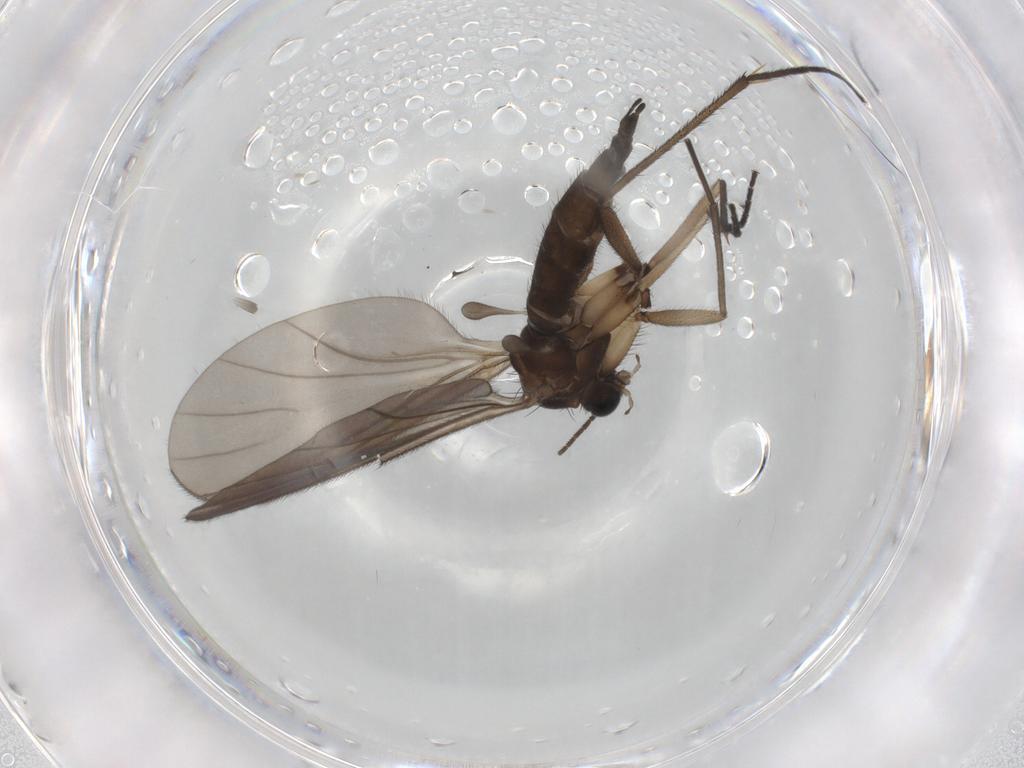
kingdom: Animalia
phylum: Arthropoda
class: Insecta
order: Diptera
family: Sciaridae
